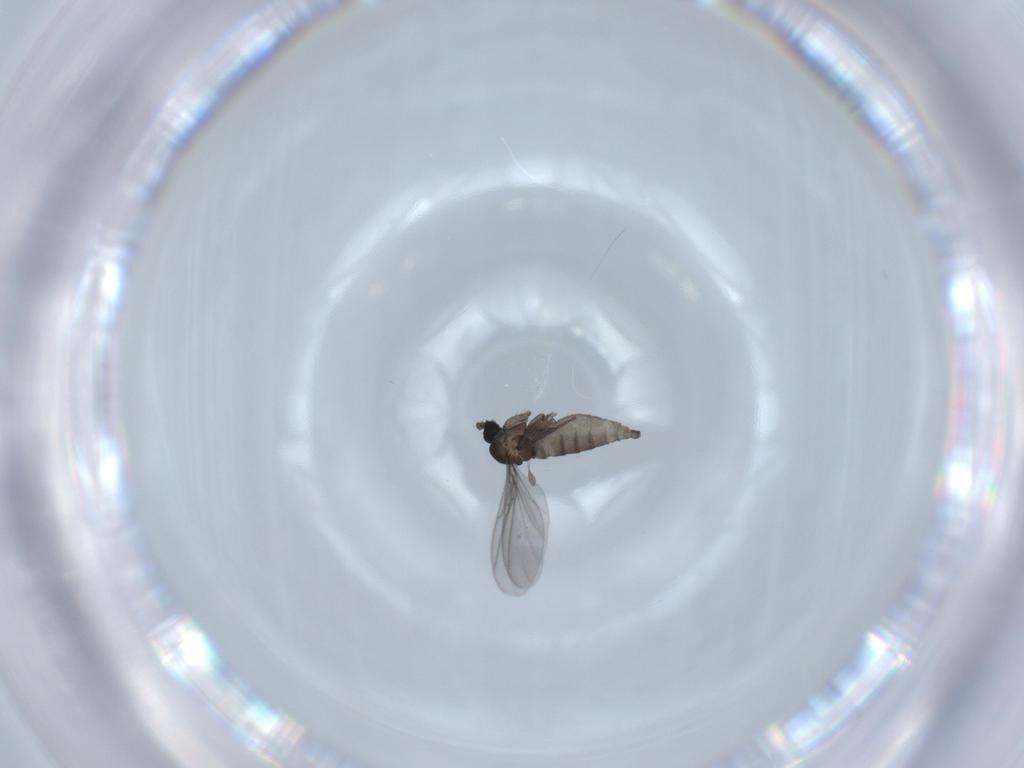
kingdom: Animalia
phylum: Arthropoda
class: Insecta
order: Diptera
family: Sciaridae
